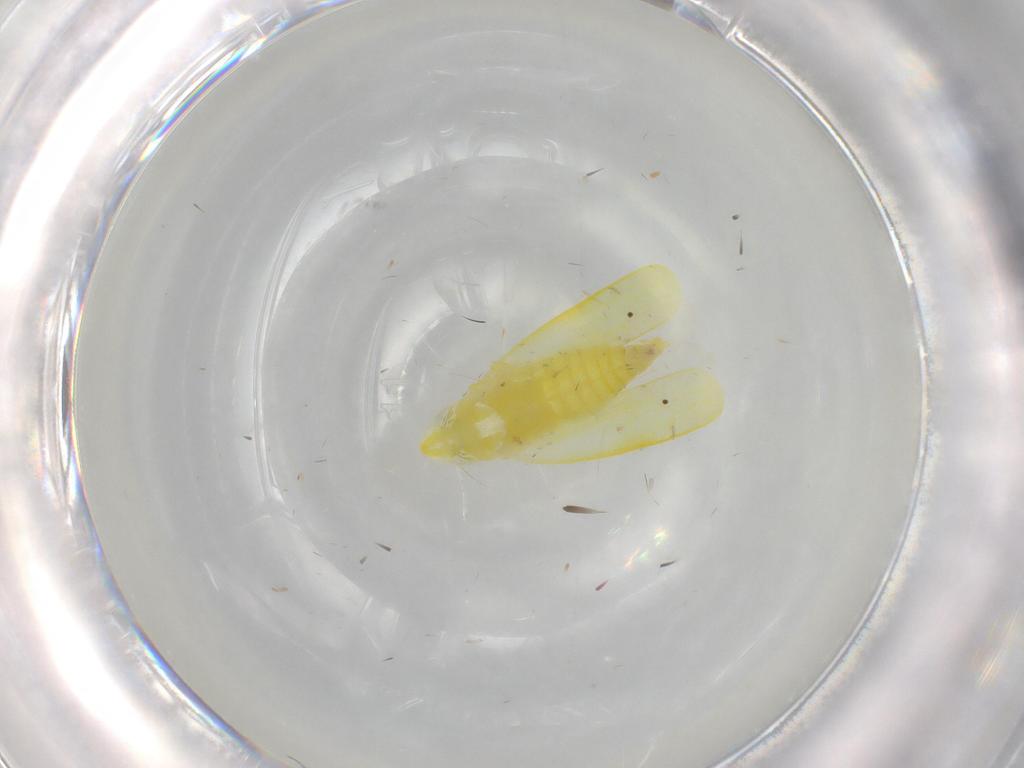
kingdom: Animalia
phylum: Arthropoda
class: Insecta
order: Hemiptera
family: Cicadellidae
